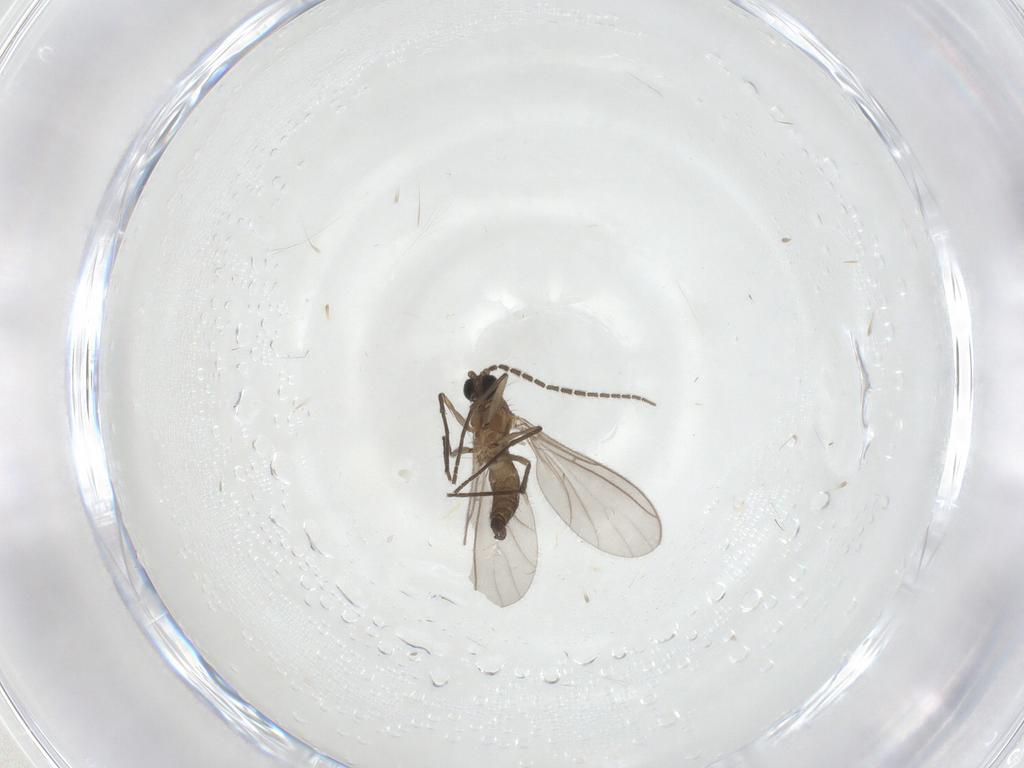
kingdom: Animalia
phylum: Arthropoda
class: Insecta
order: Diptera
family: Sciaridae
